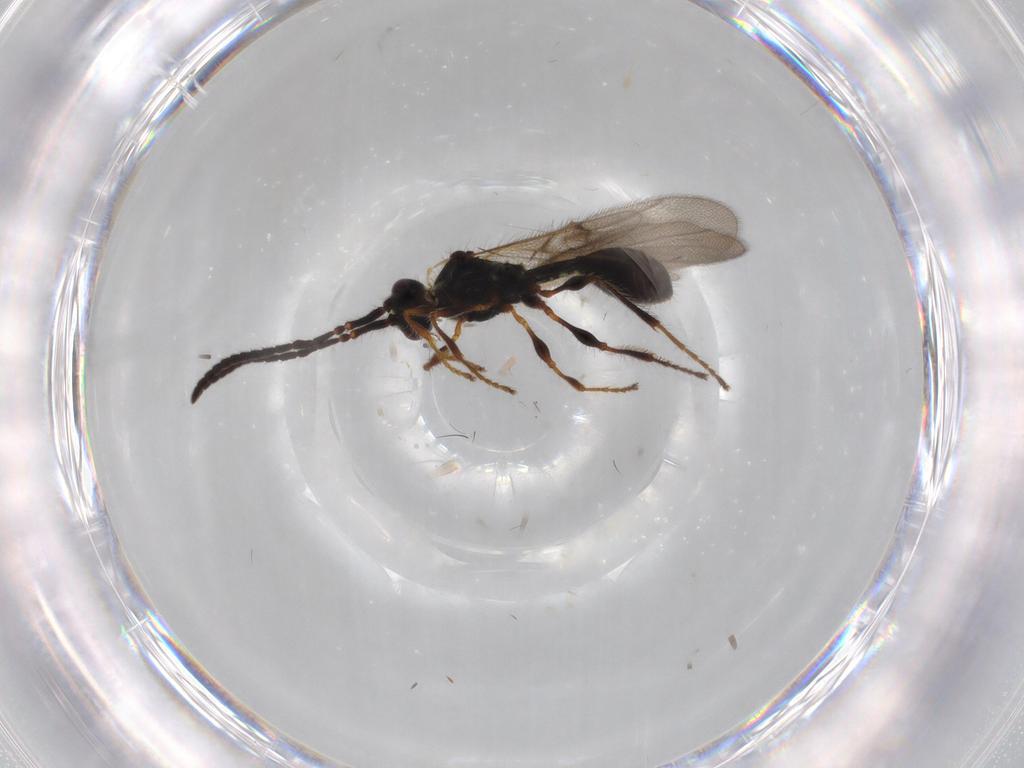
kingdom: Animalia
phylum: Arthropoda
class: Insecta
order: Hymenoptera
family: Diapriidae
